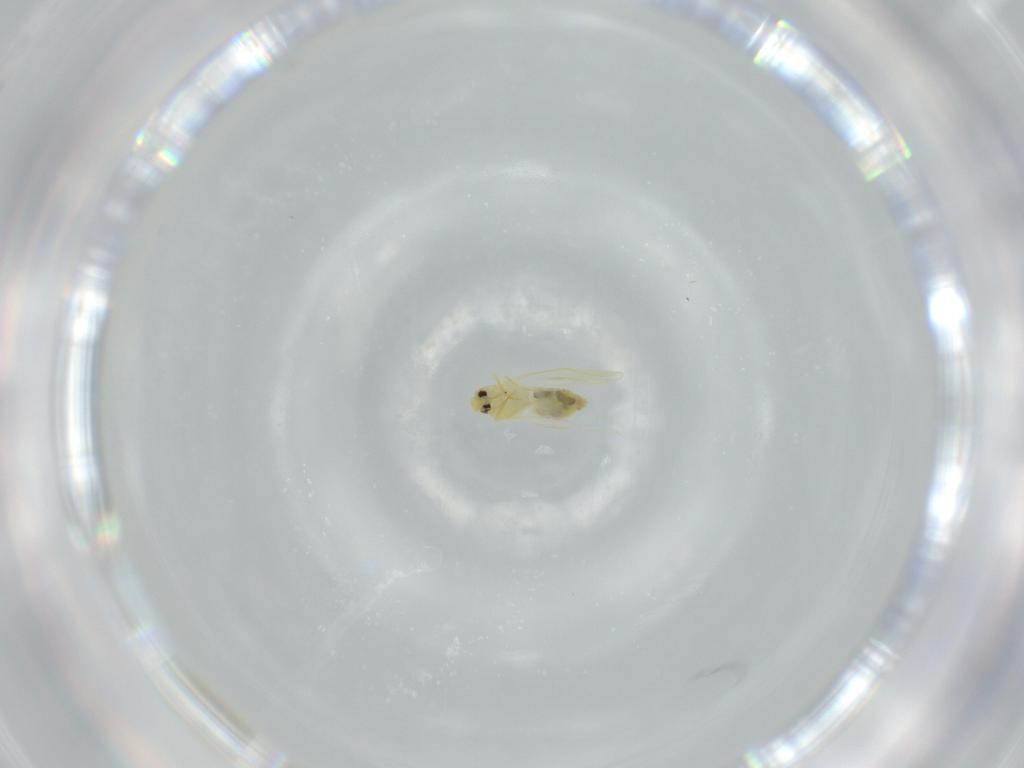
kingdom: Animalia
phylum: Arthropoda
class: Insecta
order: Hemiptera
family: Aleyrodidae
